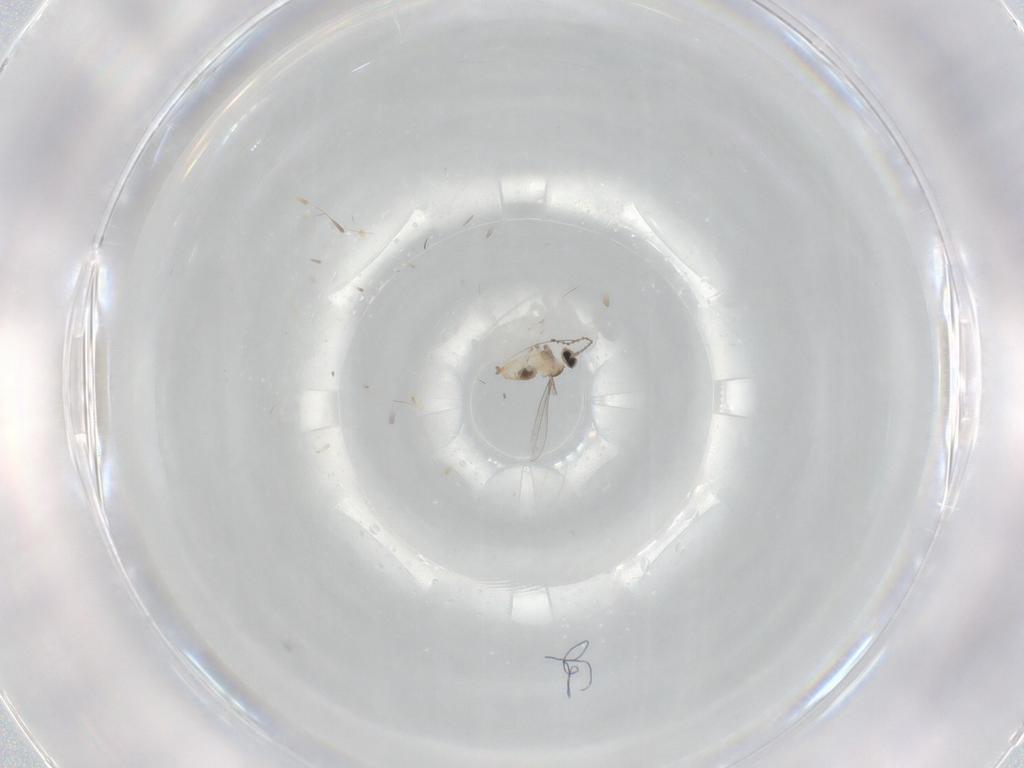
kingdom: Animalia
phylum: Arthropoda
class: Insecta
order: Diptera
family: Cecidomyiidae
